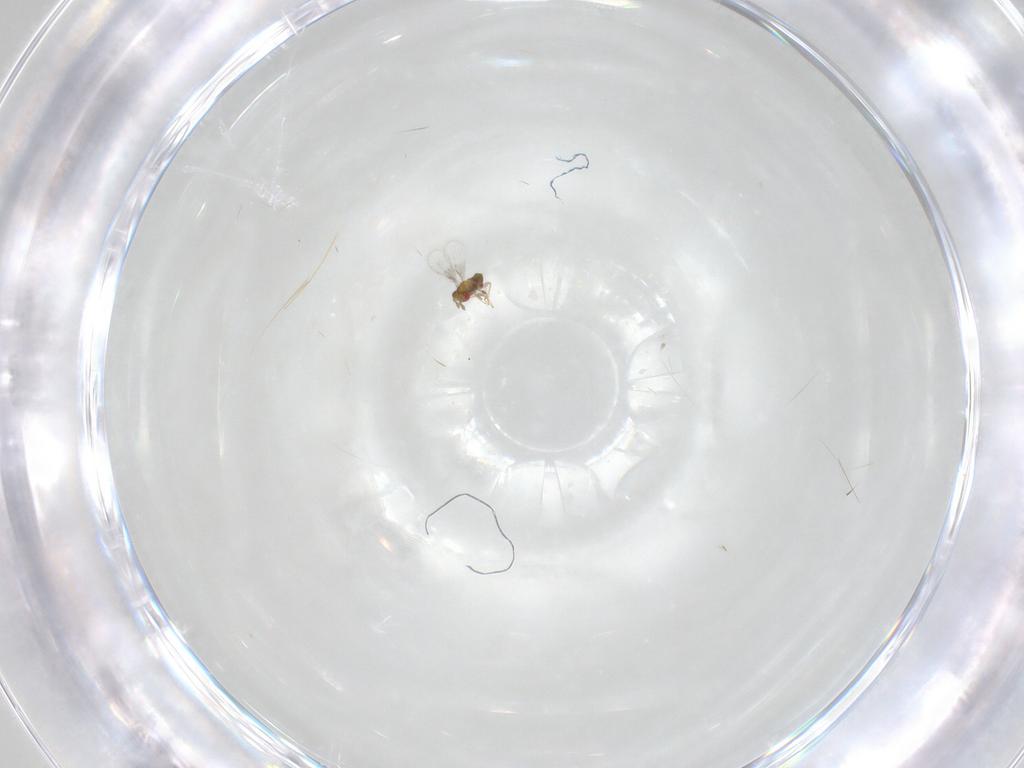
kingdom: Animalia
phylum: Arthropoda
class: Insecta
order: Hymenoptera
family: Trichogrammatidae
